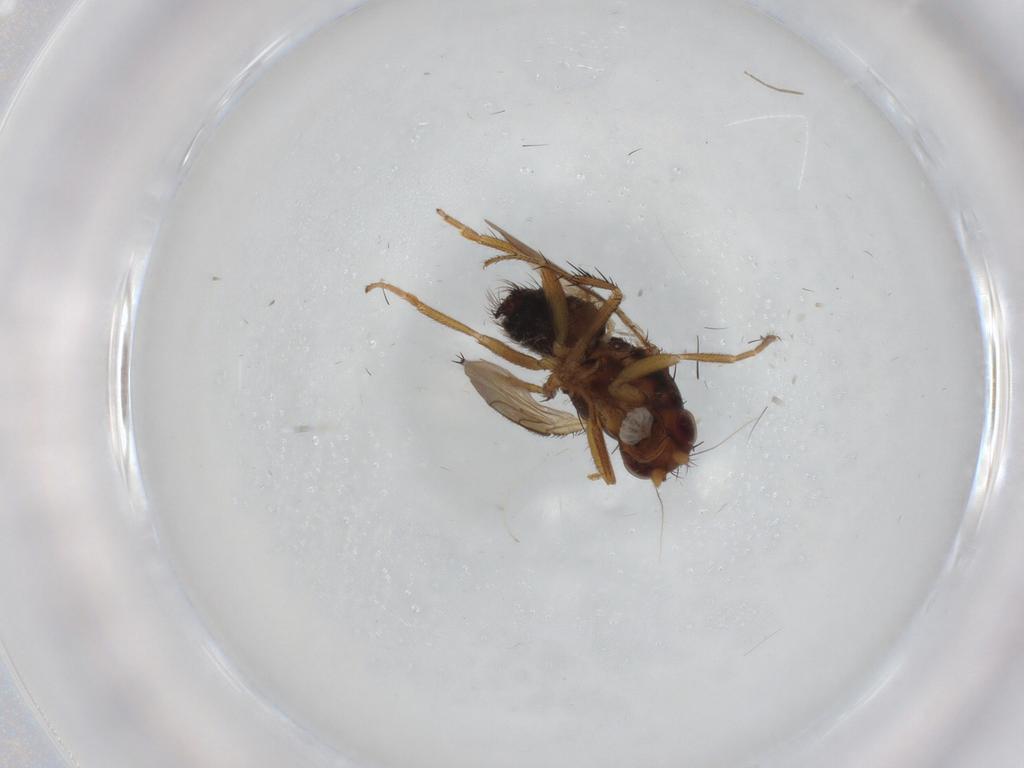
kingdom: Animalia
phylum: Arthropoda
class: Insecta
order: Diptera
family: Sphaeroceridae
